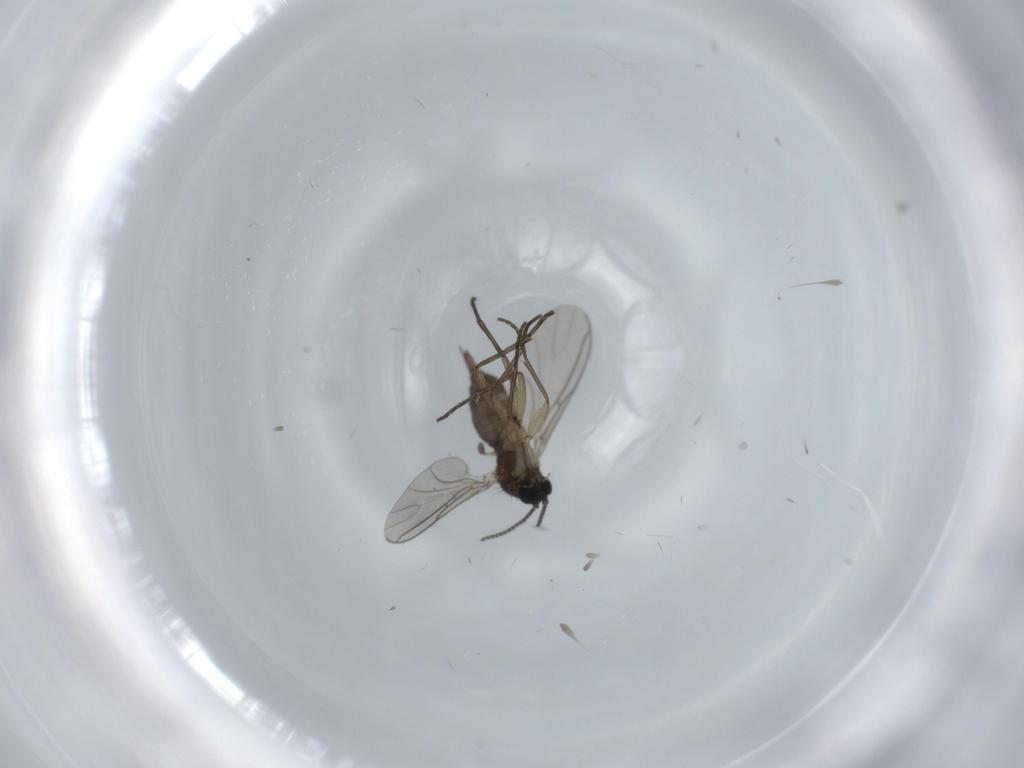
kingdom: Animalia
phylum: Arthropoda
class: Insecta
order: Diptera
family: Sciaridae
